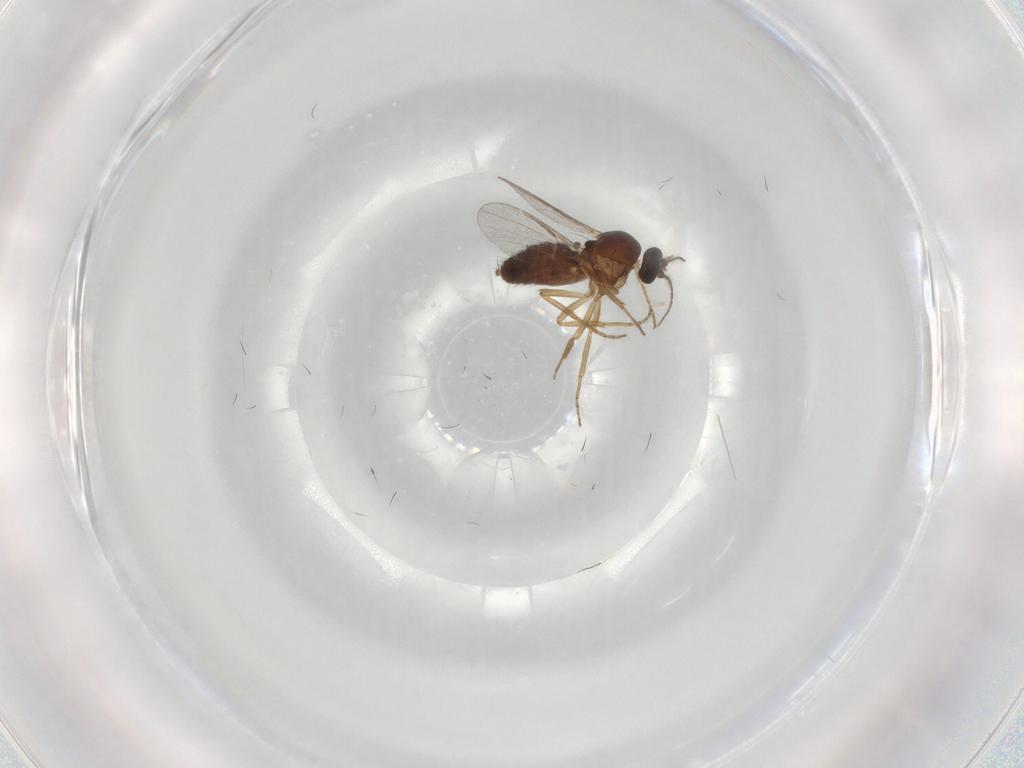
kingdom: Animalia
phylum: Arthropoda
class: Insecta
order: Diptera
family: Ceratopogonidae
